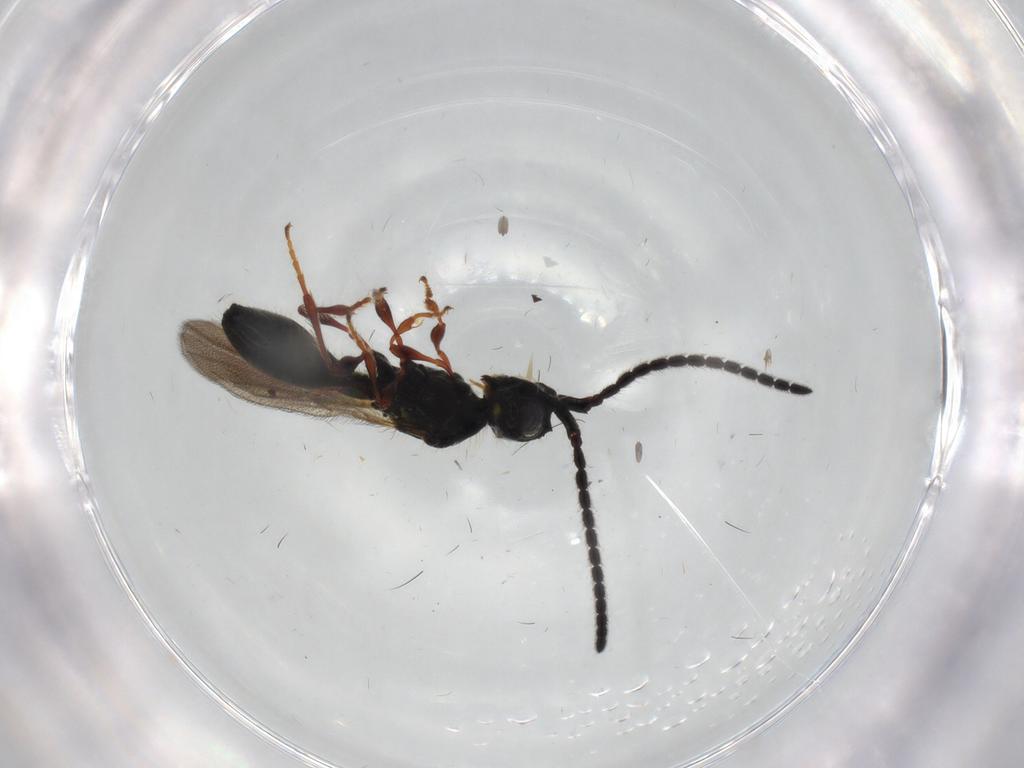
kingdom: Animalia
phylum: Arthropoda
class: Insecta
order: Hymenoptera
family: Diapriidae
